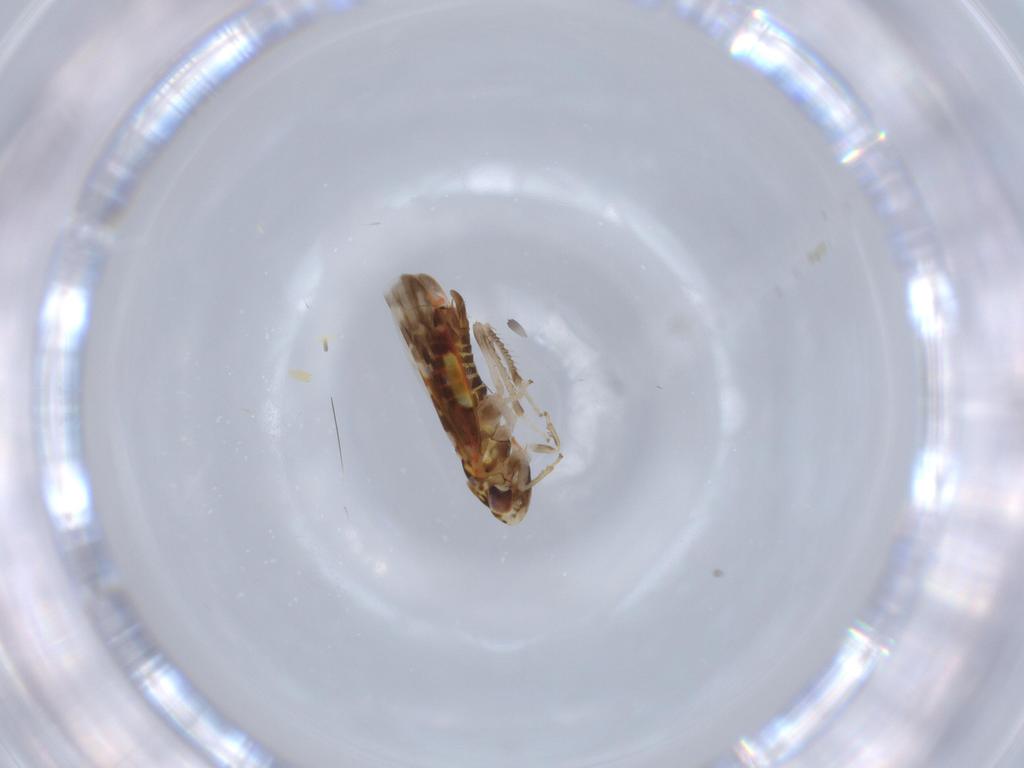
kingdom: Animalia
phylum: Arthropoda
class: Insecta
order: Hemiptera
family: Cicadellidae
